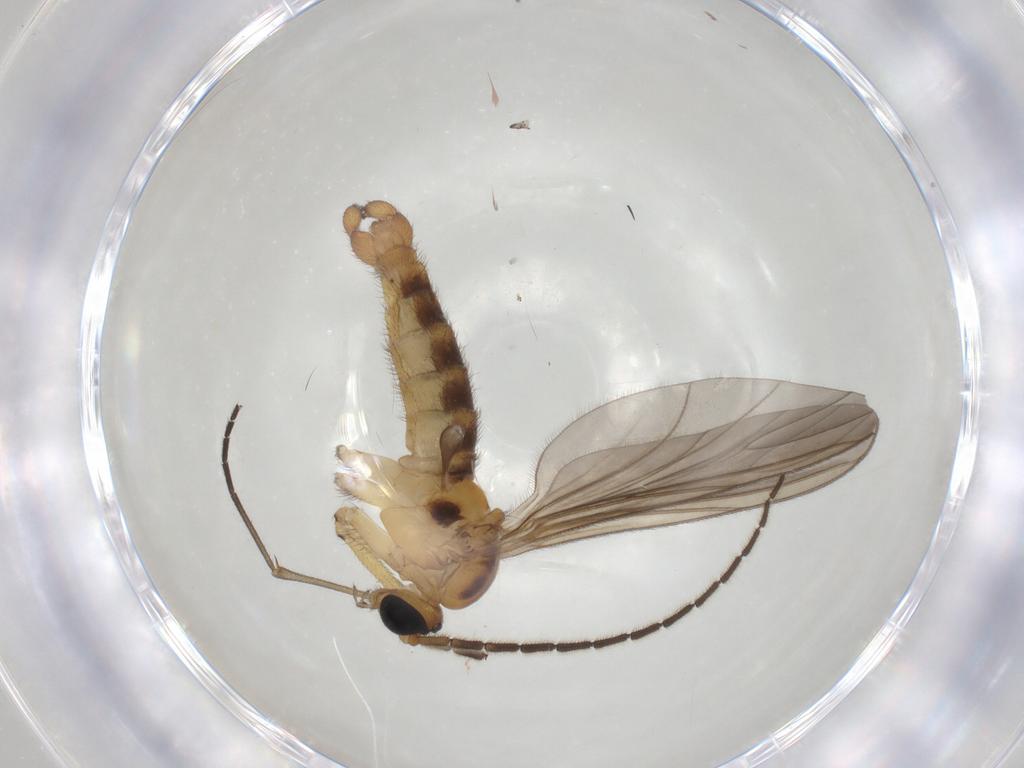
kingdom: Animalia
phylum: Arthropoda
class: Insecta
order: Diptera
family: Sciaridae
